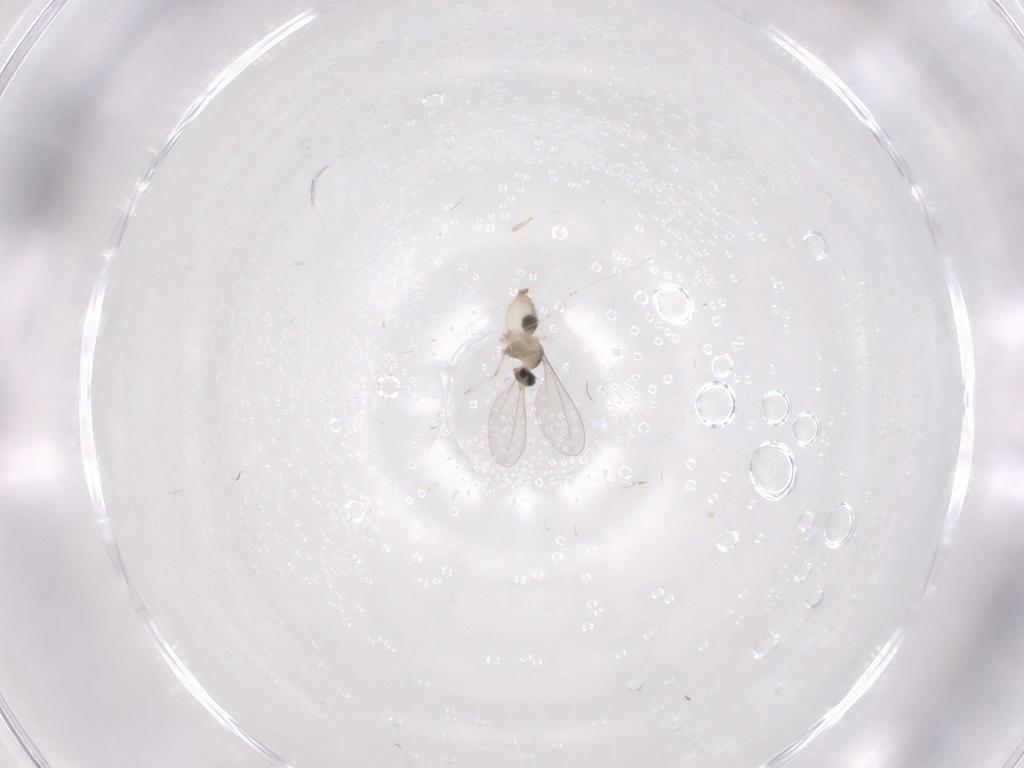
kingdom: Animalia
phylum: Arthropoda
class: Insecta
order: Diptera
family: Cecidomyiidae
